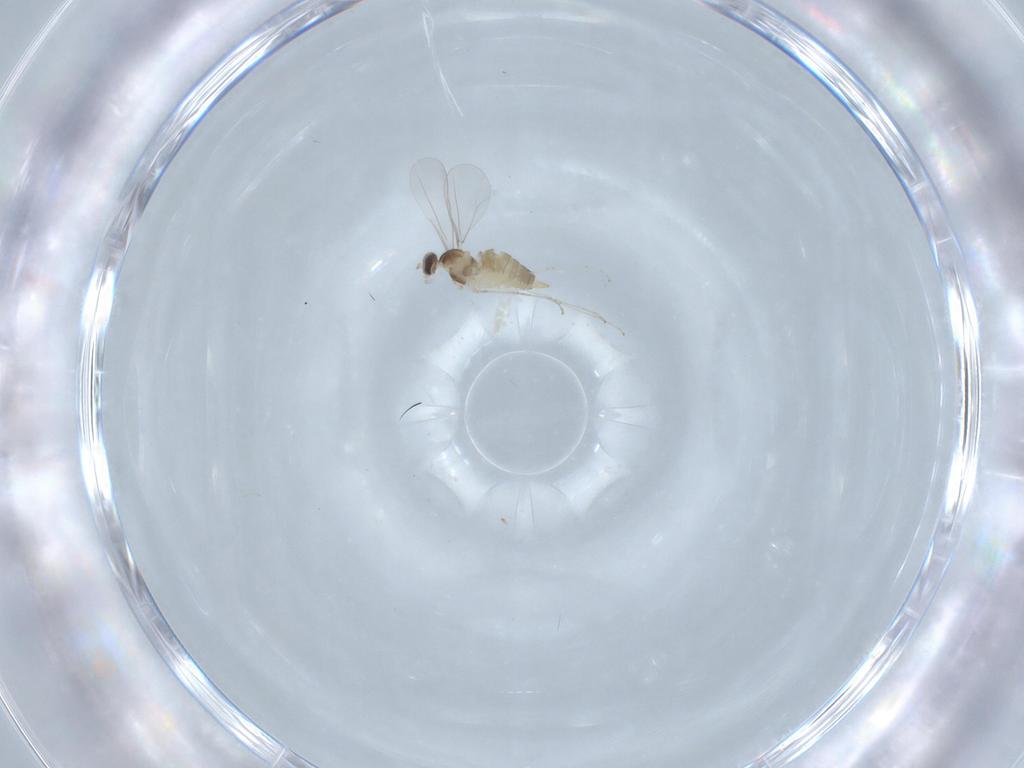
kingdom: Animalia
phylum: Arthropoda
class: Insecta
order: Diptera
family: Cecidomyiidae
